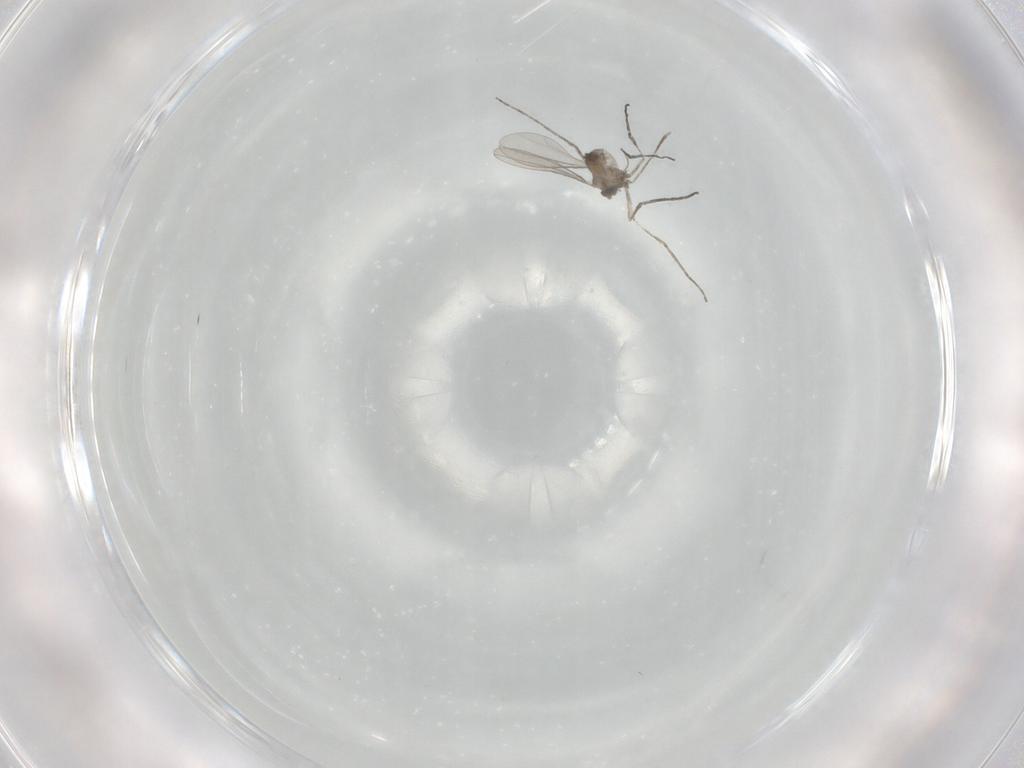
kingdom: Animalia
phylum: Arthropoda
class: Insecta
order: Diptera
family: Cecidomyiidae
